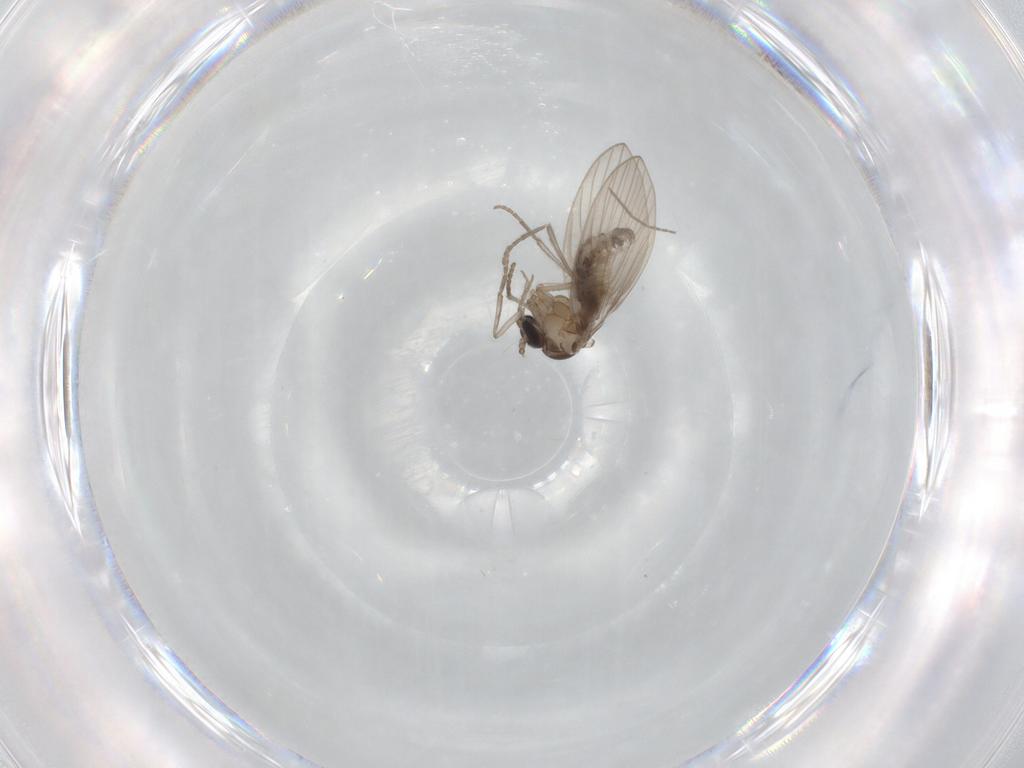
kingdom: Animalia
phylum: Arthropoda
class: Insecta
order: Diptera
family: Psychodidae
